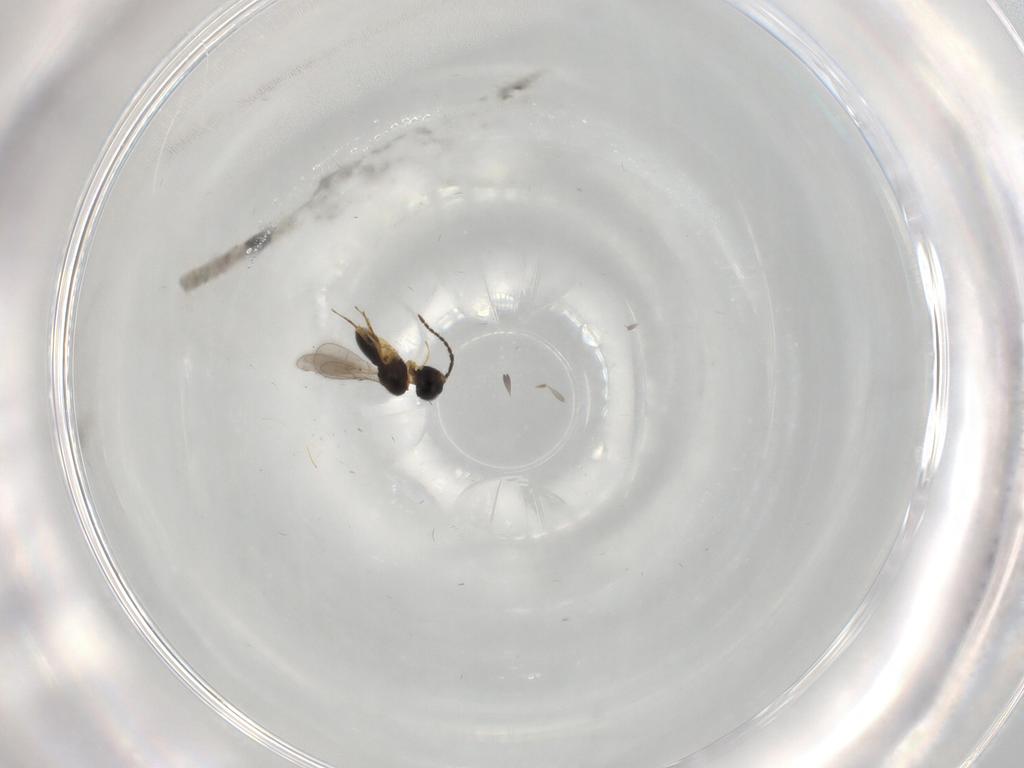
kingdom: Animalia
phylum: Arthropoda
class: Insecta
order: Hymenoptera
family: Scelionidae
